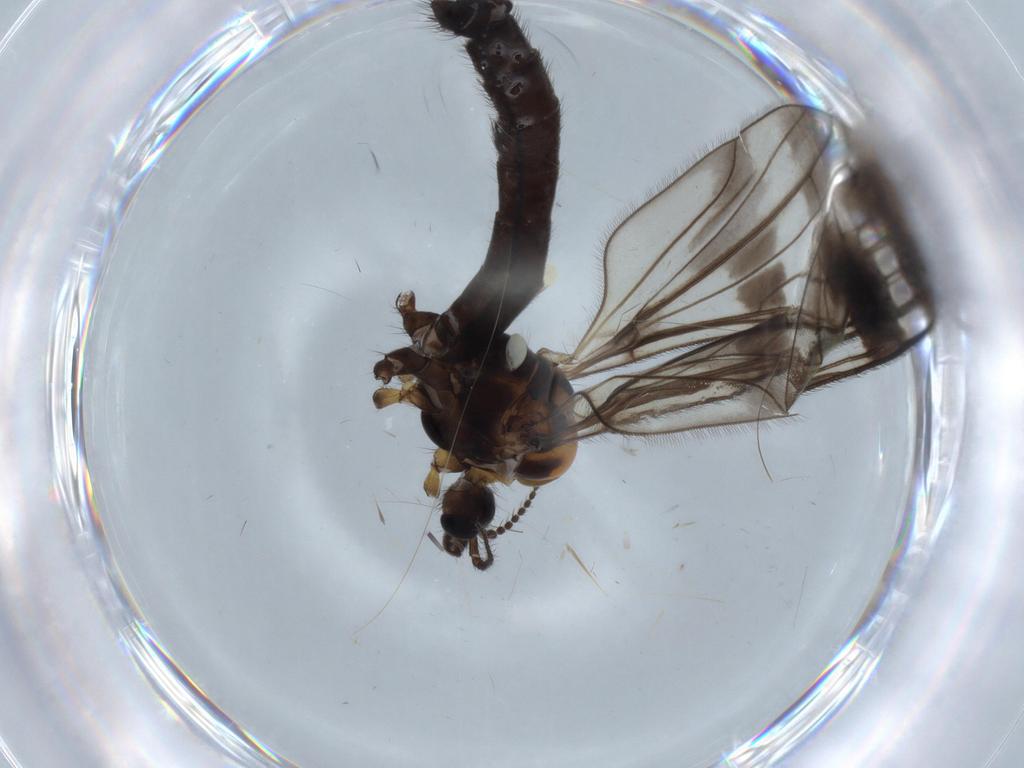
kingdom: Animalia
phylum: Arthropoda
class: Insecta
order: Diptera
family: Limoniidae
